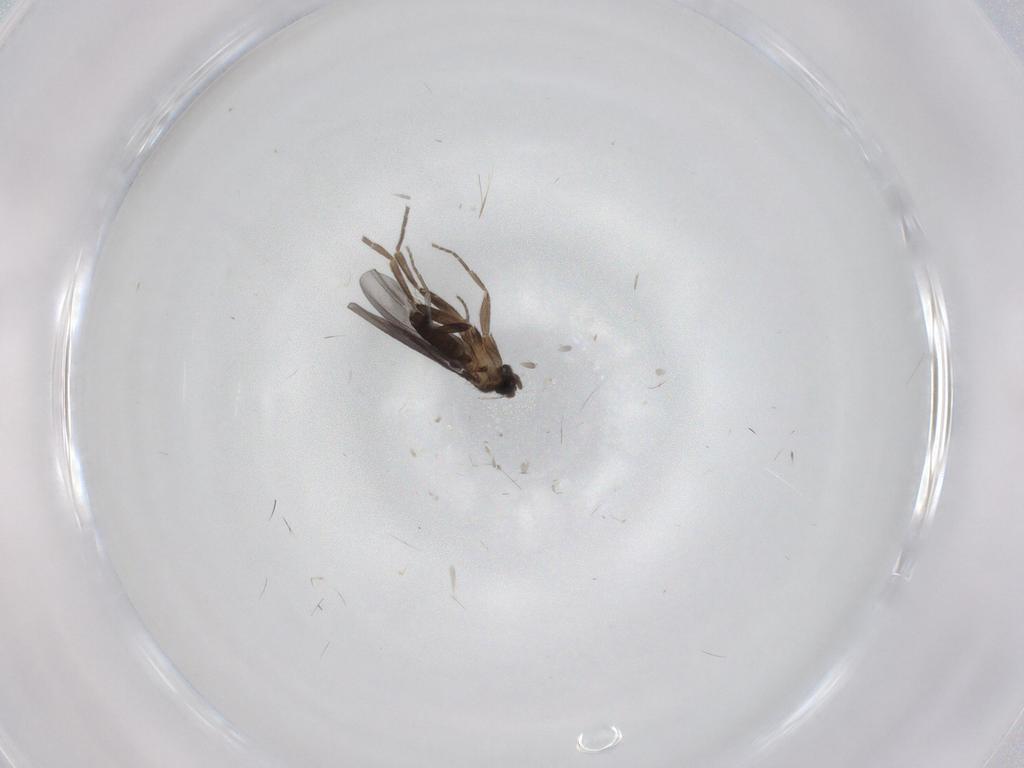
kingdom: Animalia
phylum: Arthropoda
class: Insecta
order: Diptera
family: Phoridae
